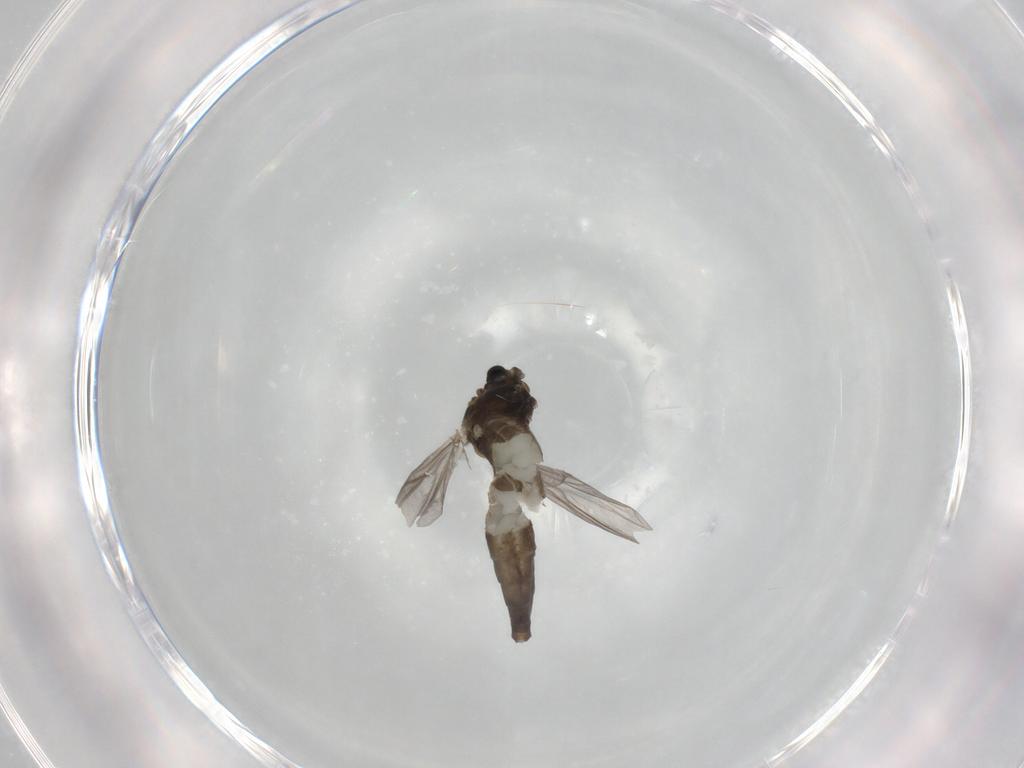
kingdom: Animalia
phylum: Arthropoda
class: Insecta
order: Diptera
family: Chironomidae
